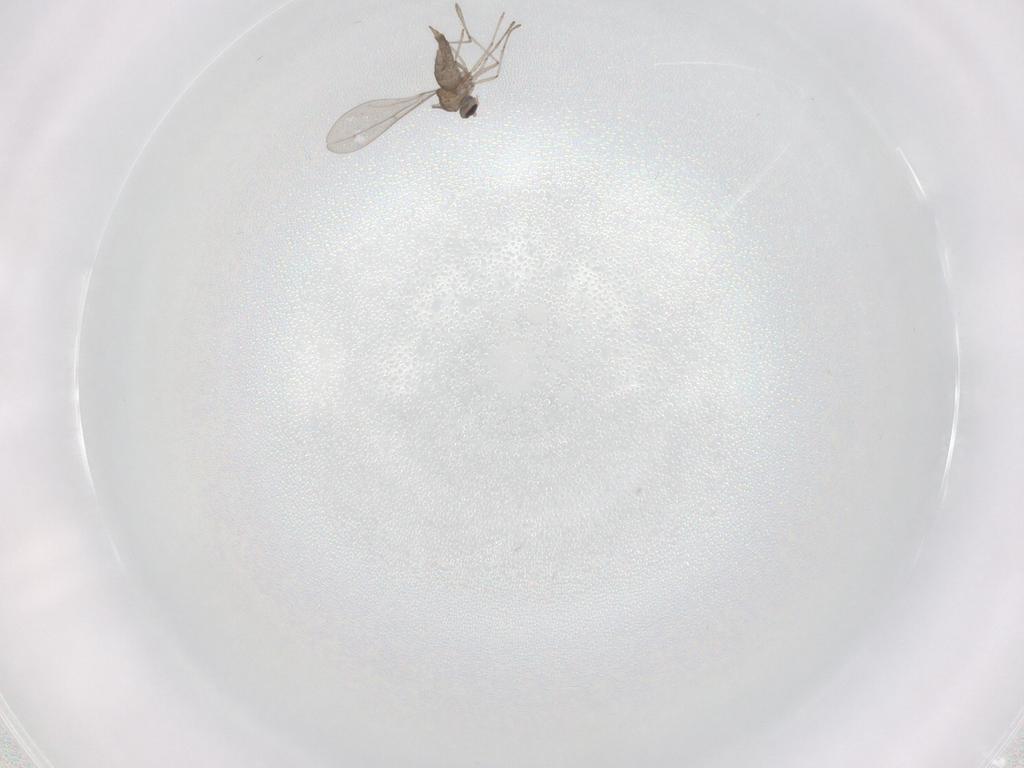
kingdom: Animalia
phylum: Arthropoda
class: Insecta
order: Diptera
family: Cecidomyiidae
